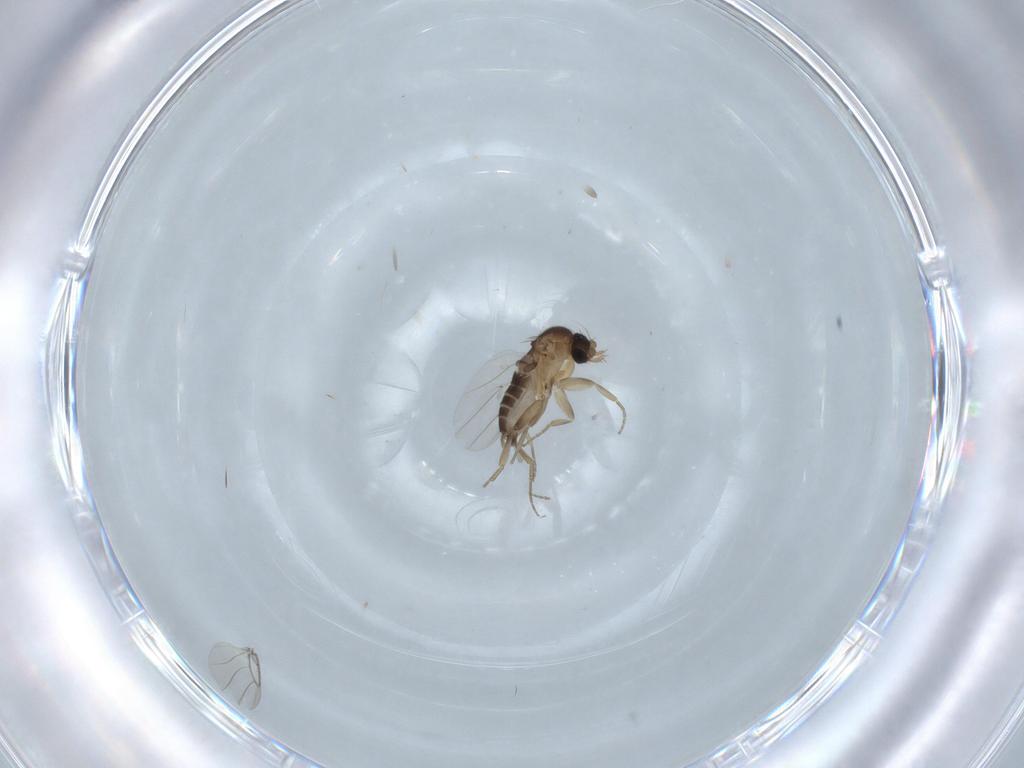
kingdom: Animalia
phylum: Arthropoda
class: Insecta
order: Diptera
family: Phoridae
